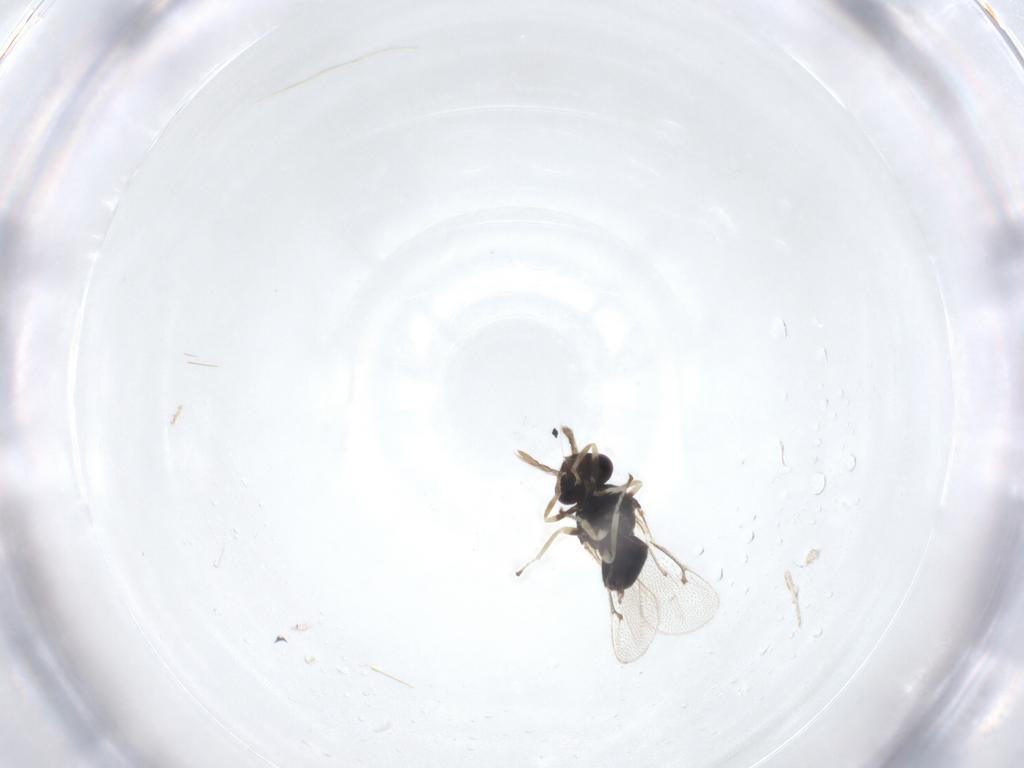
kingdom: Animalia
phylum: Arthropoda
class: Insecta
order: Hymenoptera
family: Eulophidae
